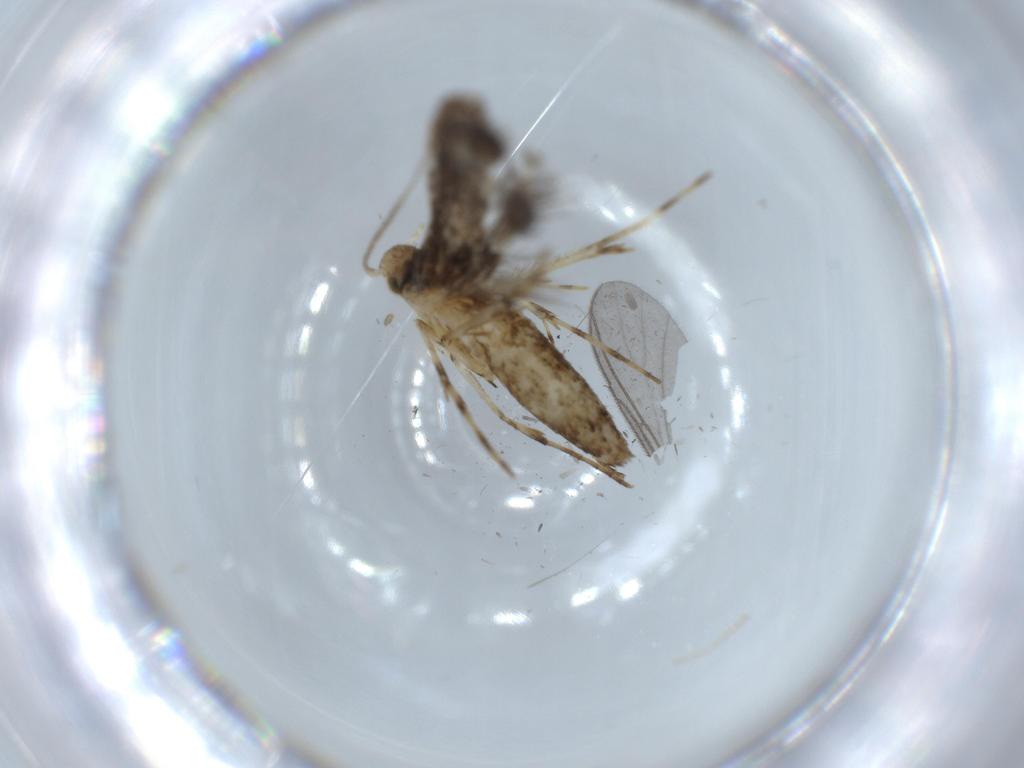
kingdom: Animalia
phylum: Arthropoda
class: Insecta
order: Lepidoptera
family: Gracillariidae
